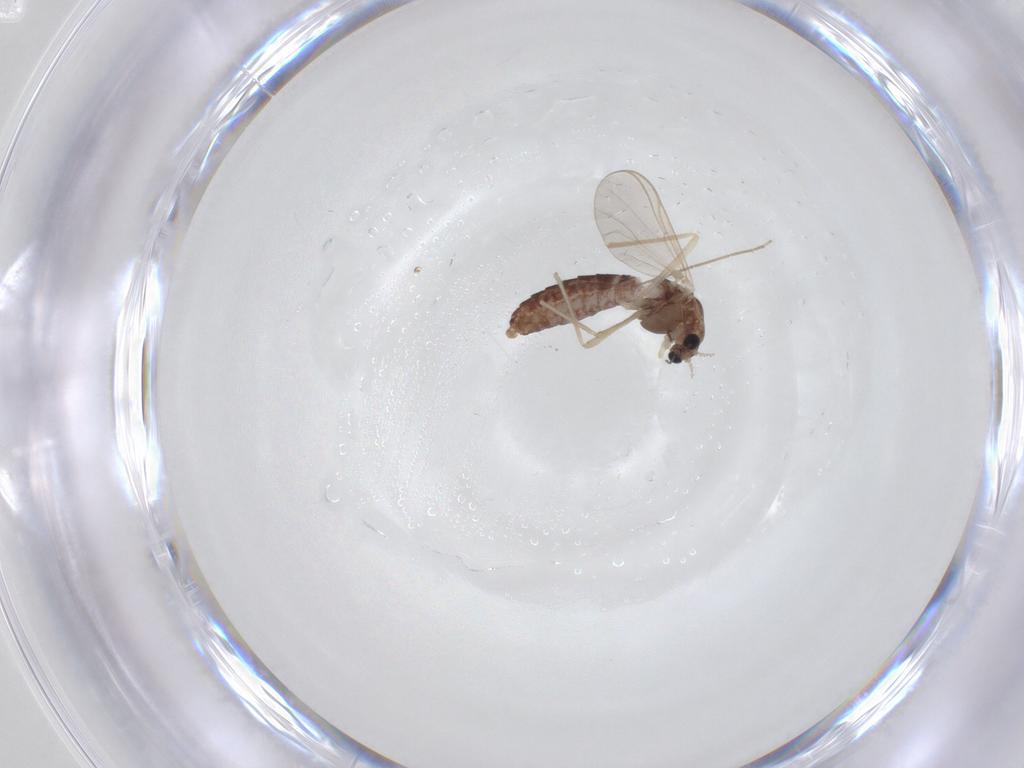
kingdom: Animalia
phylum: Arthropoda
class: Insecta
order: Diptera
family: Chironomidae
